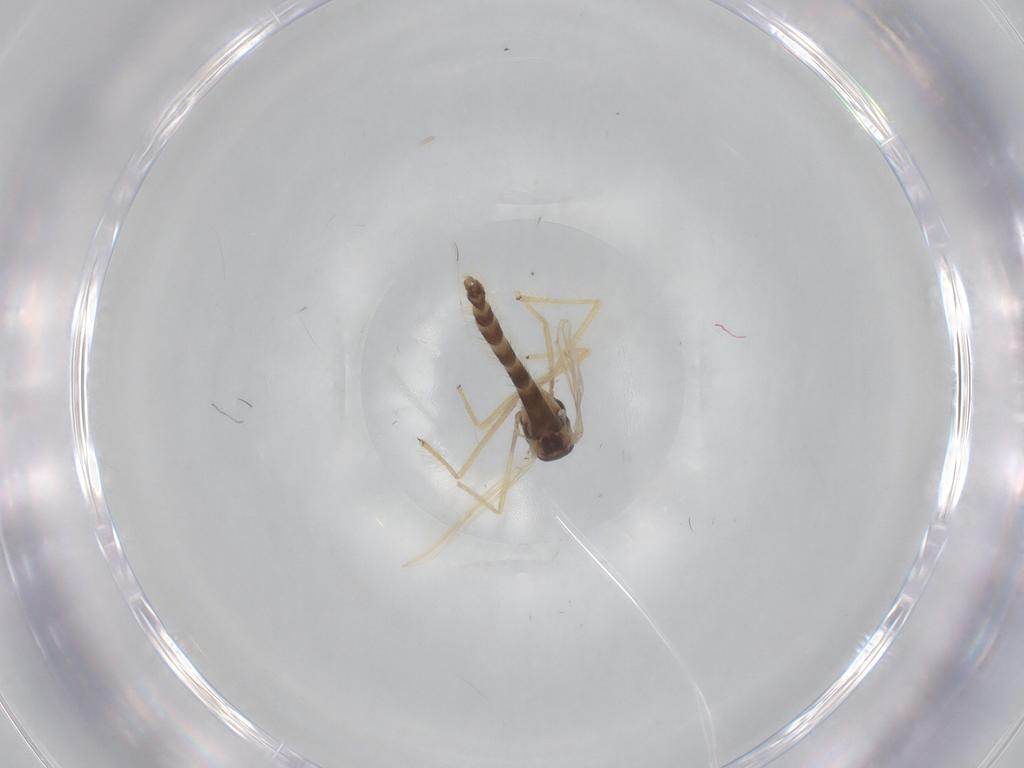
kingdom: Animalia
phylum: Arthropoda
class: Insecta
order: Diptera
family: Chironomidae
